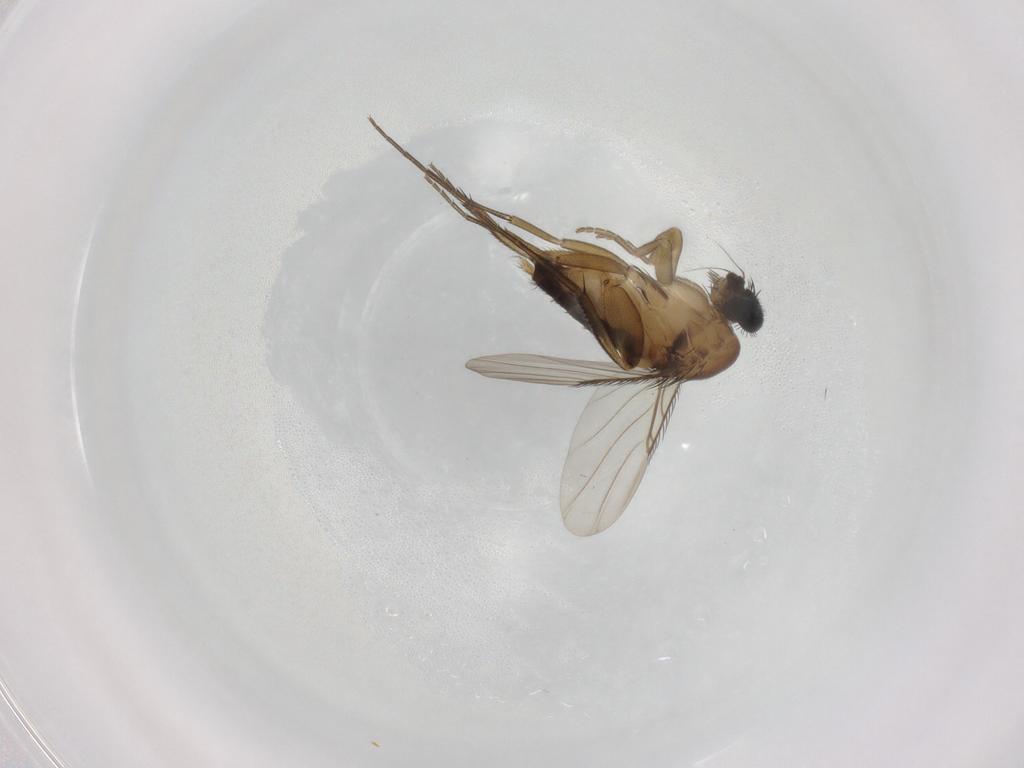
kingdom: Animalia
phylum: Arthropoda
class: Insecta
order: Diptera
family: Phoridae
